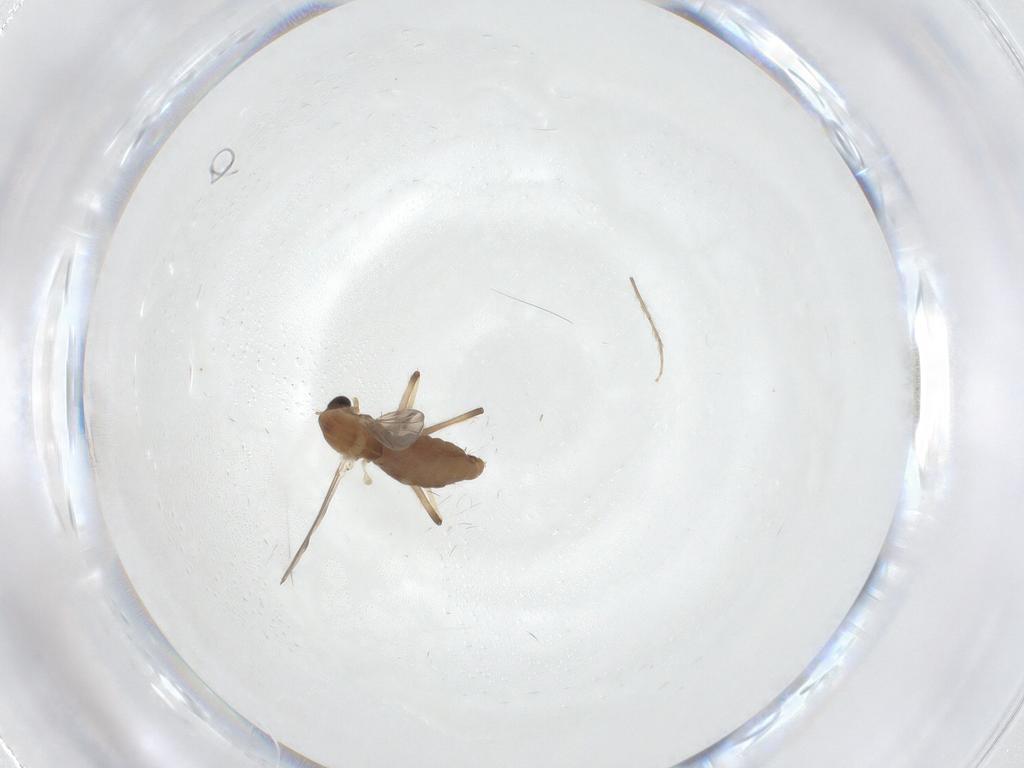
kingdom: Animalia
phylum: Arthropoda
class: Insecta
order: Diptera
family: Chironomidae
